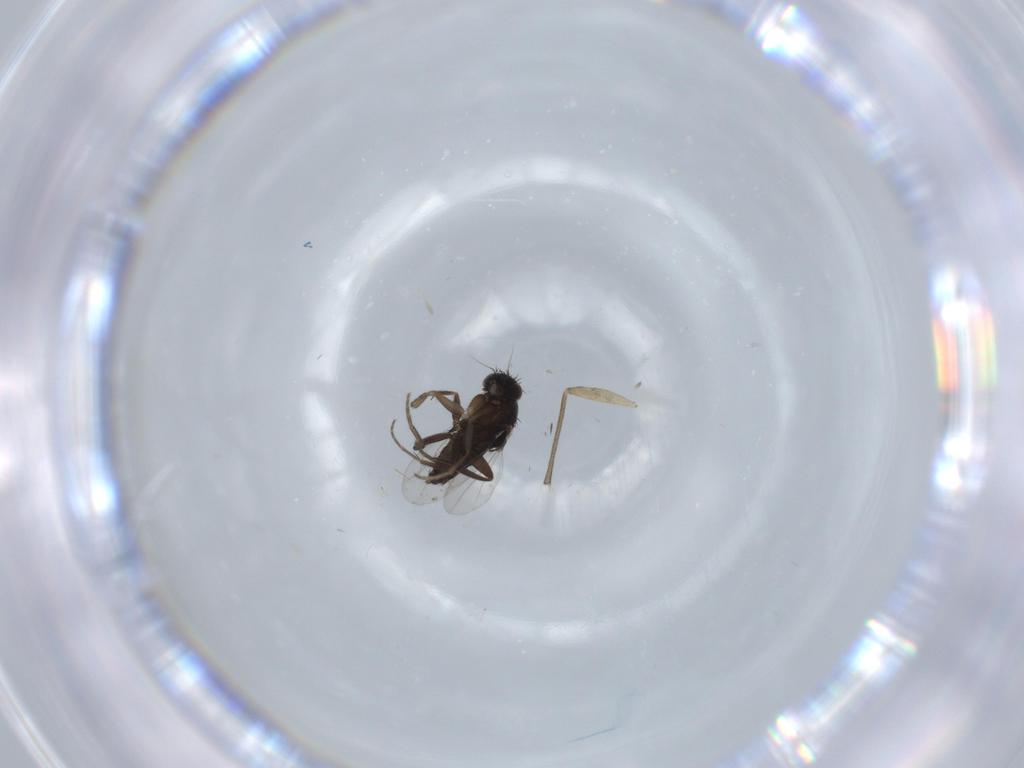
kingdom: Animalia
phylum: Arthropoda
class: Insecta
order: Diptera
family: Phoridae
